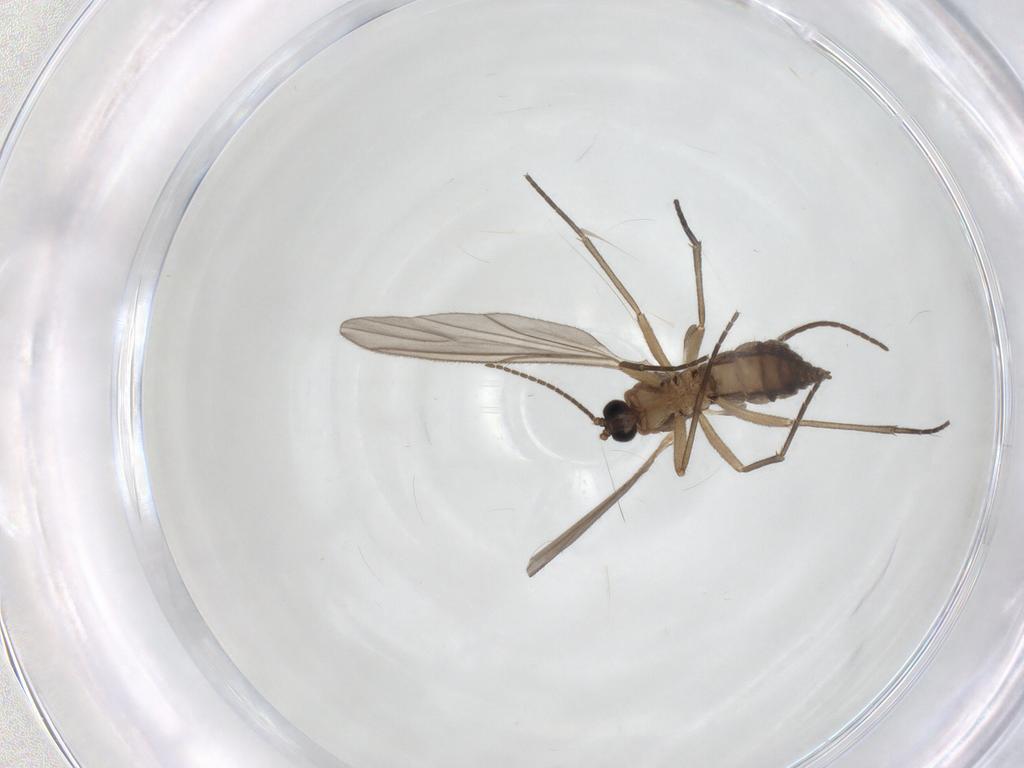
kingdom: Animalia
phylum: Arthropoda
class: Insecta
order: Diptera
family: Sciaridae
